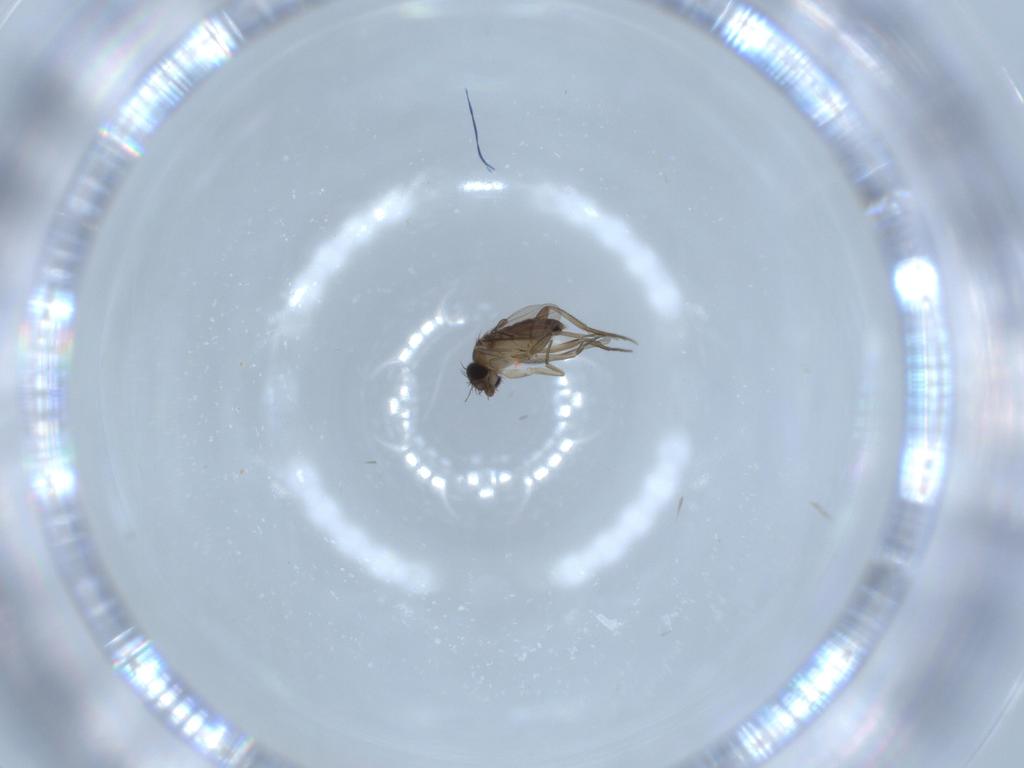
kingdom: Animalia
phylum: Arthropoda
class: Insecta
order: Diptera
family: Phoridae
